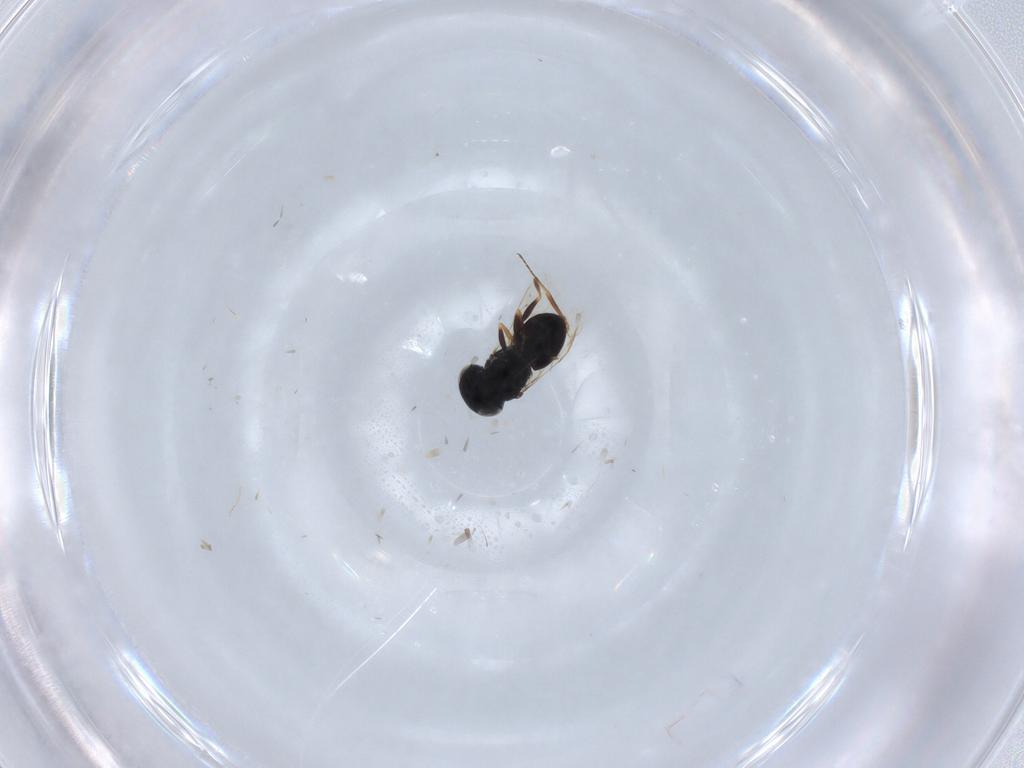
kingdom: Animalia
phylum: Arthropoda
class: Insecta
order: Hymenoptera
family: Scelionidae
